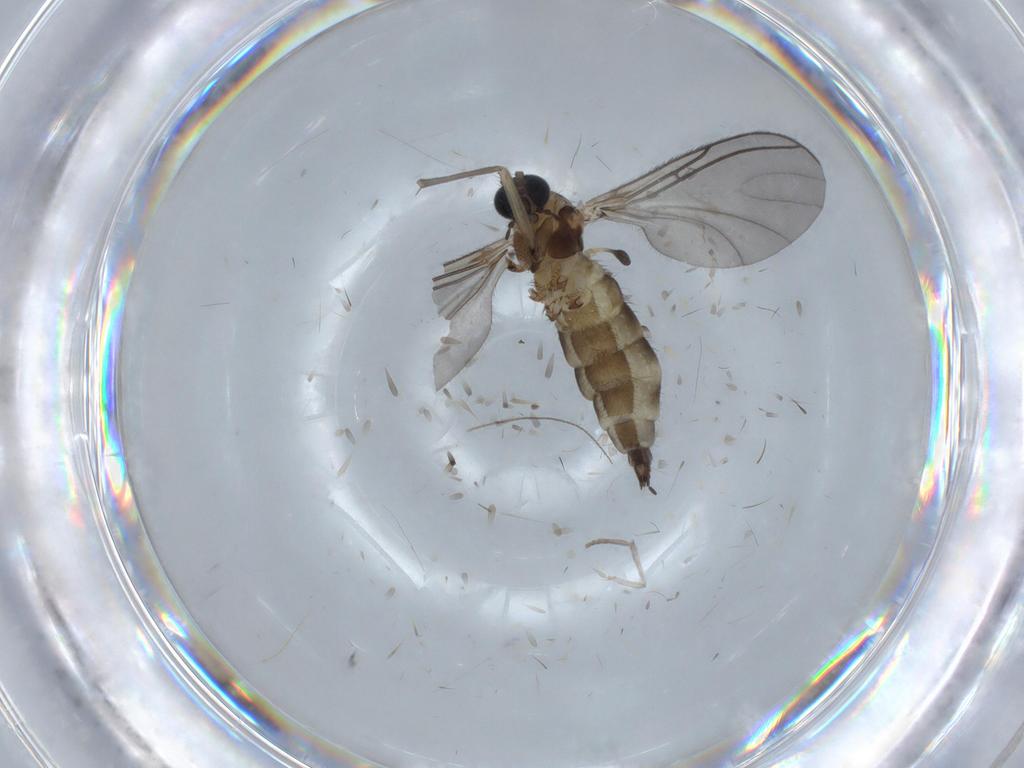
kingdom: Animalia
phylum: Arthropoda
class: Insecta
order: Diptera
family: Sciaridae
